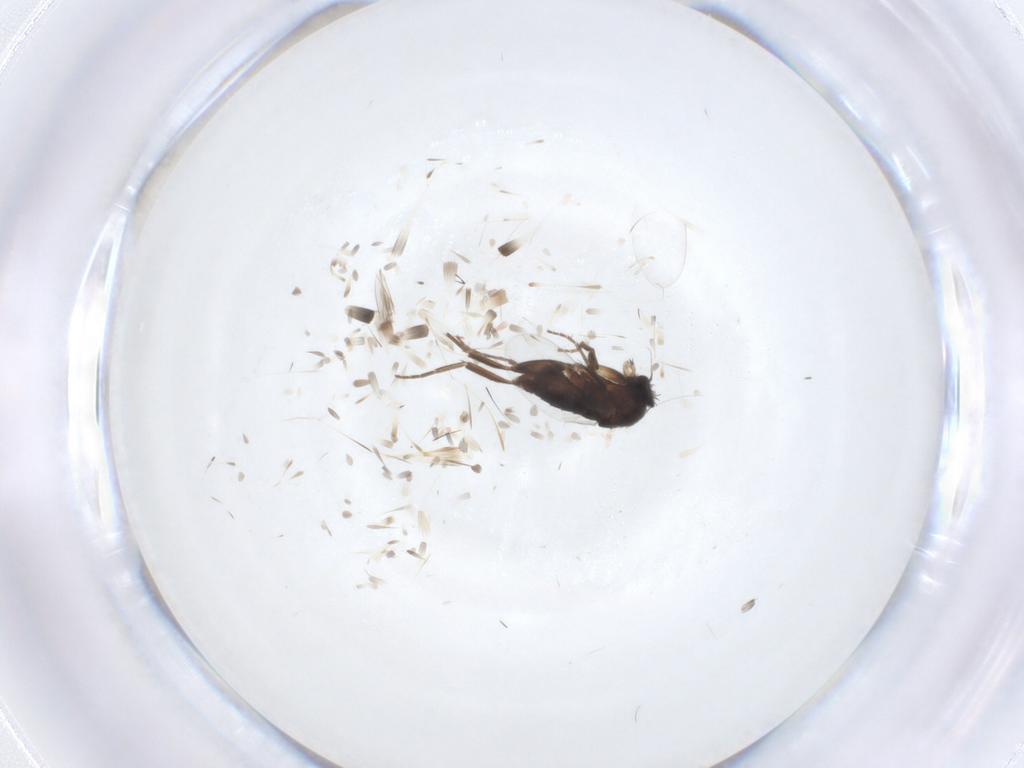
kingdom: Animalia
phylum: Arthropoda
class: Insecta
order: Diptera
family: Phoridae
